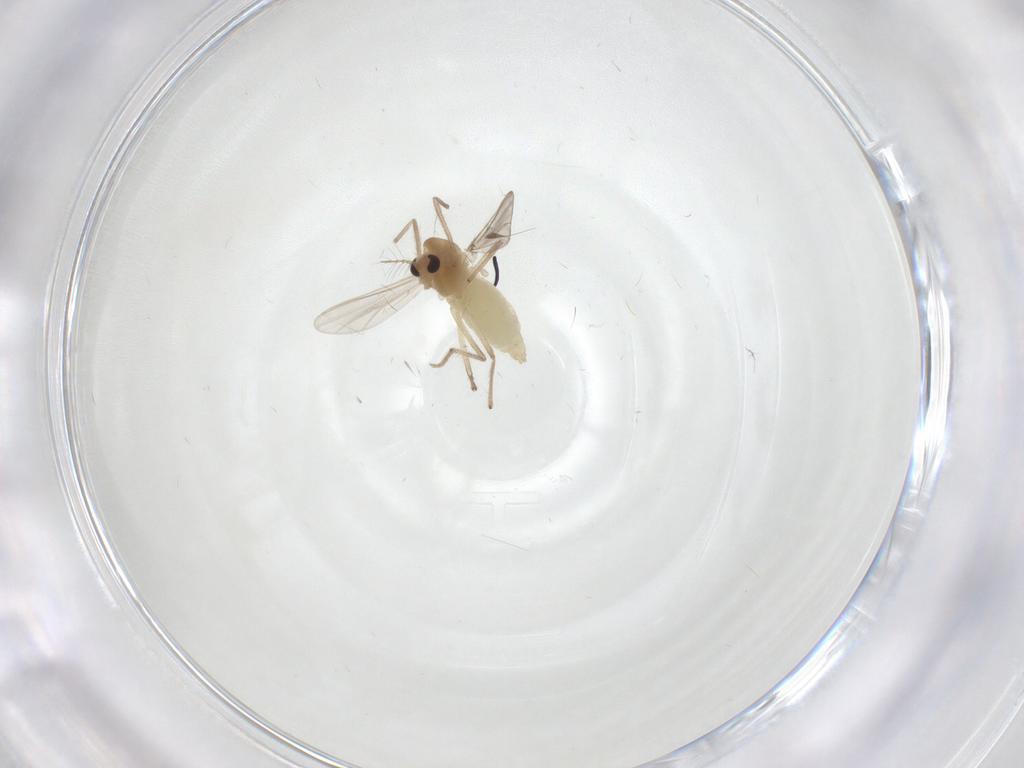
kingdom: Animalia
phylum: Arthropoda
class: Insecta
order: Diptera
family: Chironomidae
